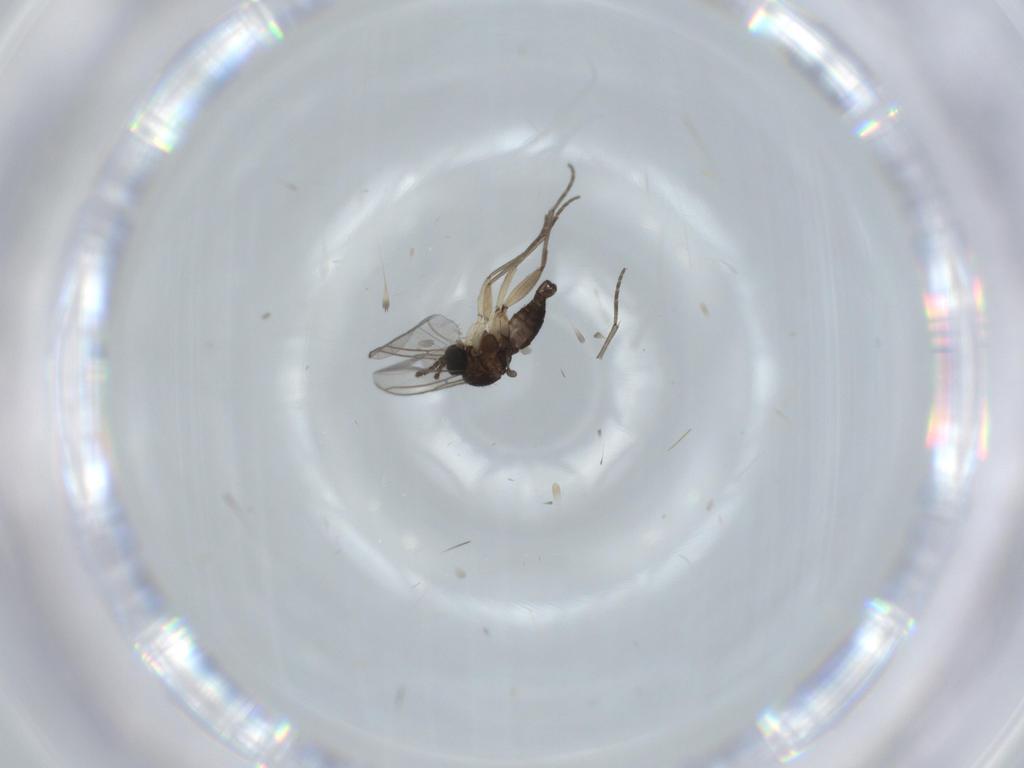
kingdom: Animalia
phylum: Arthropoda
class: Insecta
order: Diptera
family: Sciaridae
